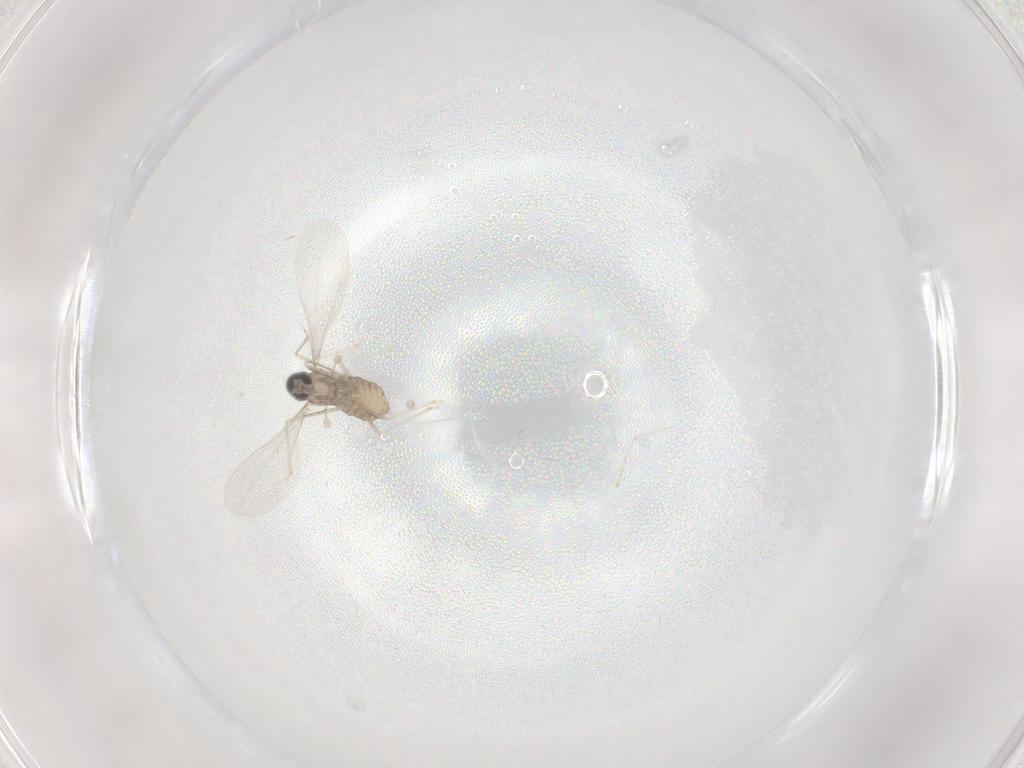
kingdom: Animalia
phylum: Arthropoda
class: Insecta
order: Diptera
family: Cecidomyiidae
